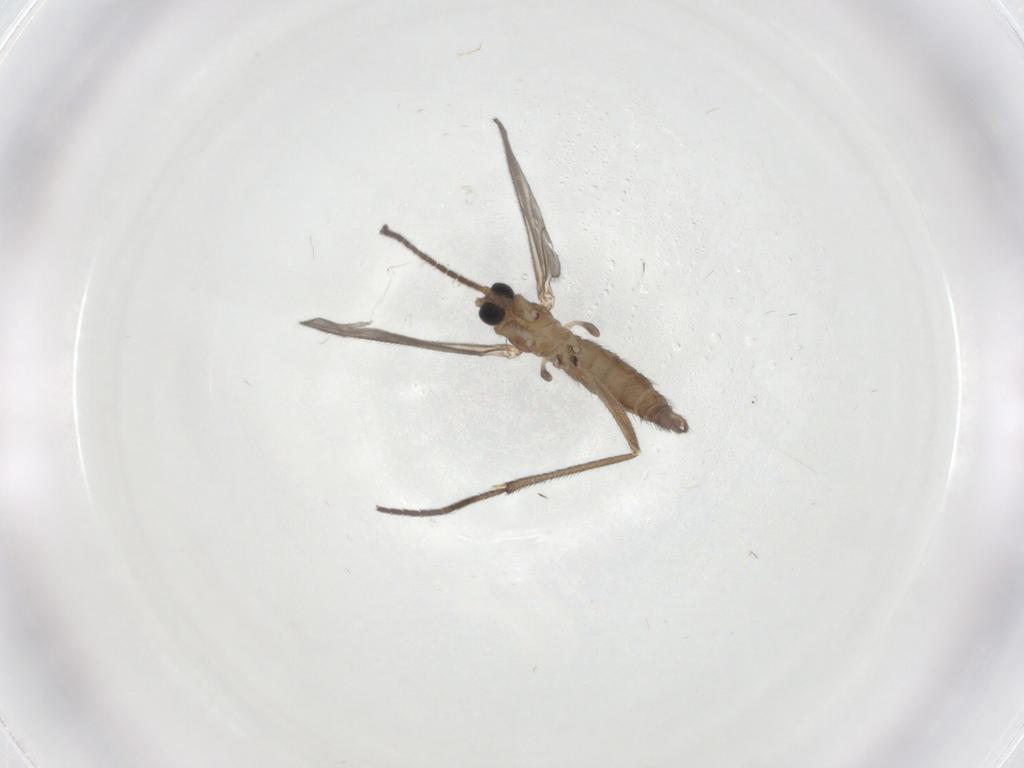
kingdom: Animalia
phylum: Arthropoda
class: Insecta
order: Diptera
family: Sciaridae
